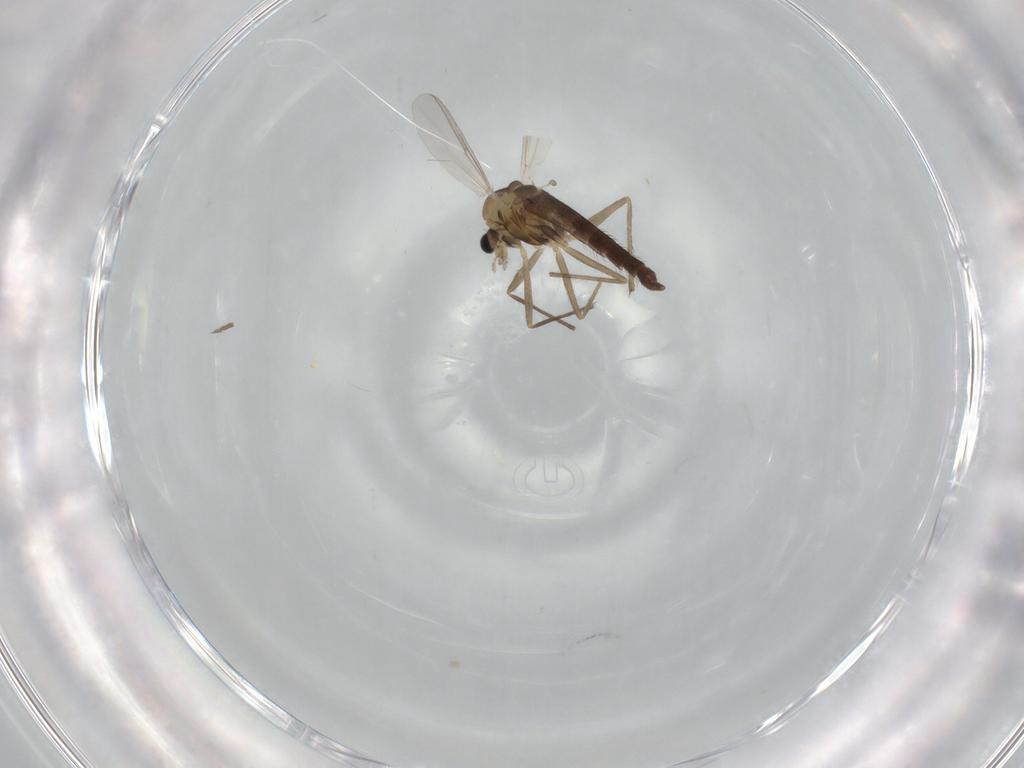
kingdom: Animalia
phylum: Arthropoda
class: Insecta
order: Diptera
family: Chironomidae
